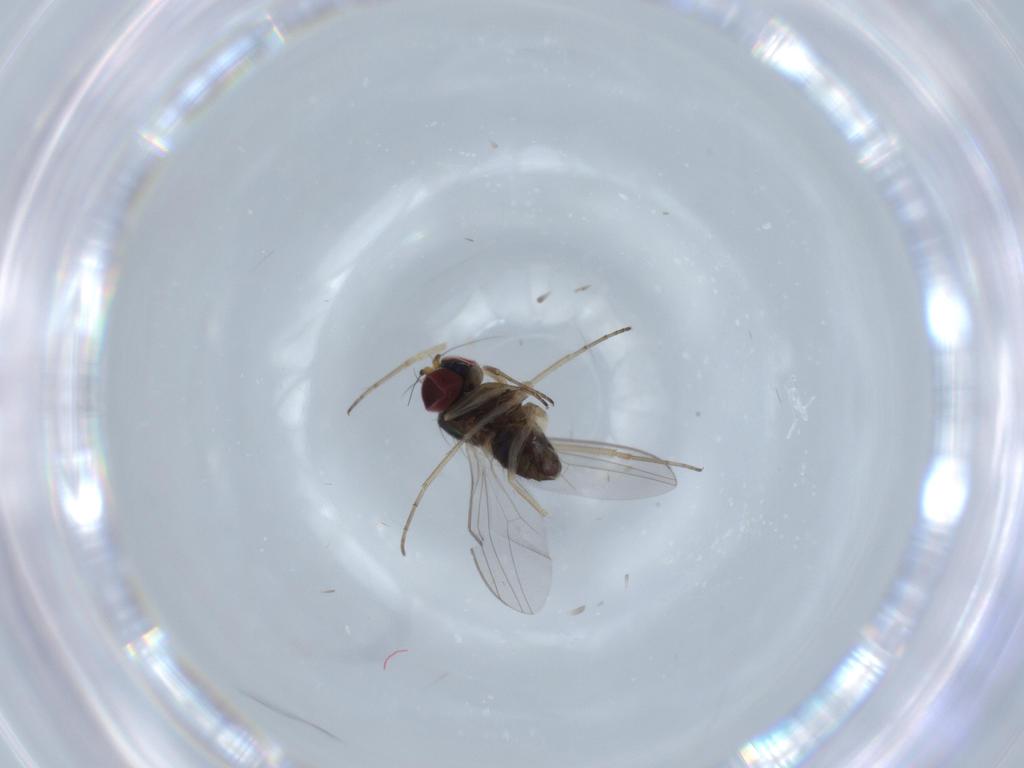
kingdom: Animalia
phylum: Arthropoda
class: Insecta
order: Diptera
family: Dolichopodidae
